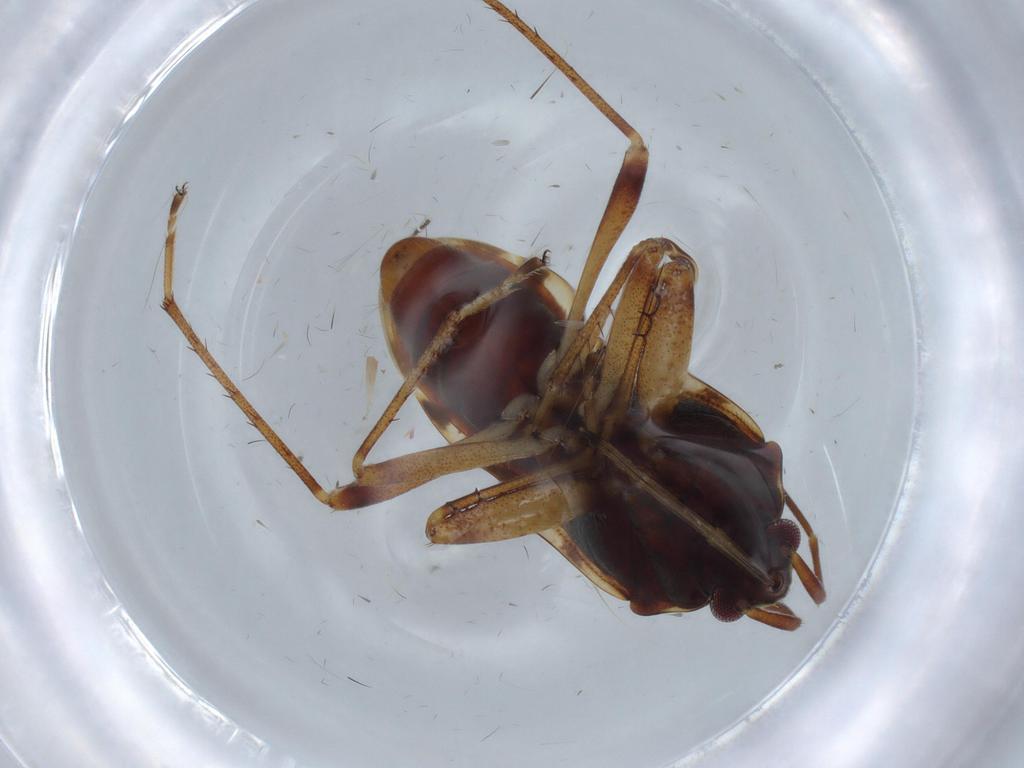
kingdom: Animalia
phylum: Arthropoda
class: Insecta
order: Hemiptera
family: Rhyparochromidae
